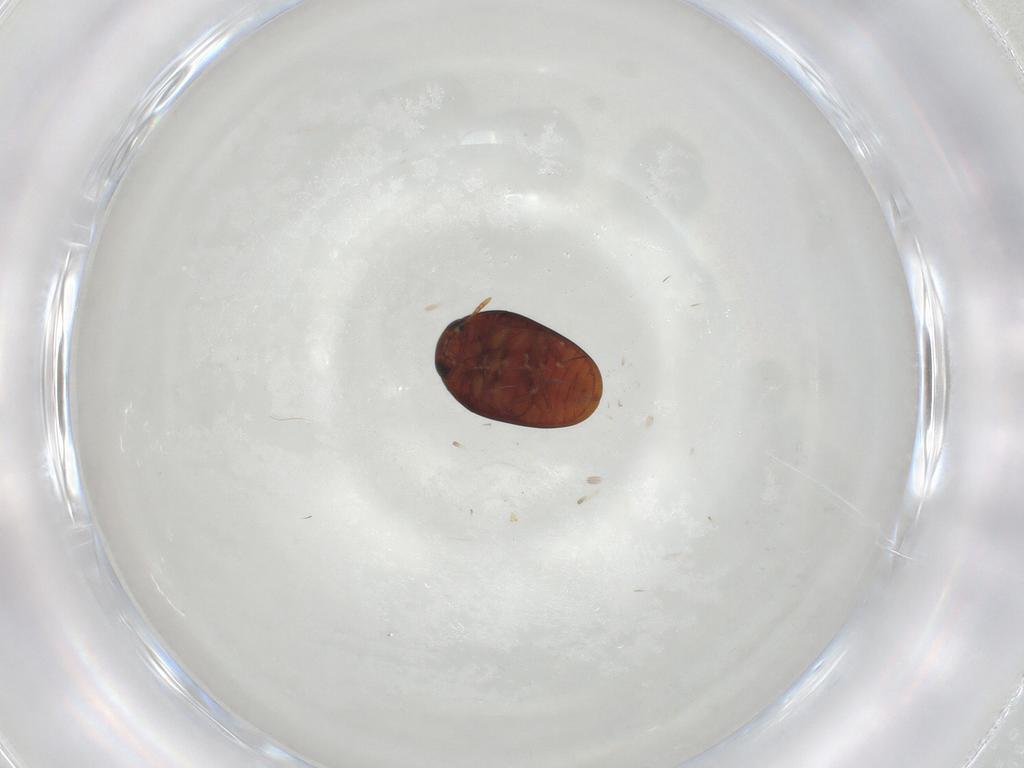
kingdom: Animalia
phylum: Arthropoda
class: Insecta
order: Coleoptera
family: Phalacridae
